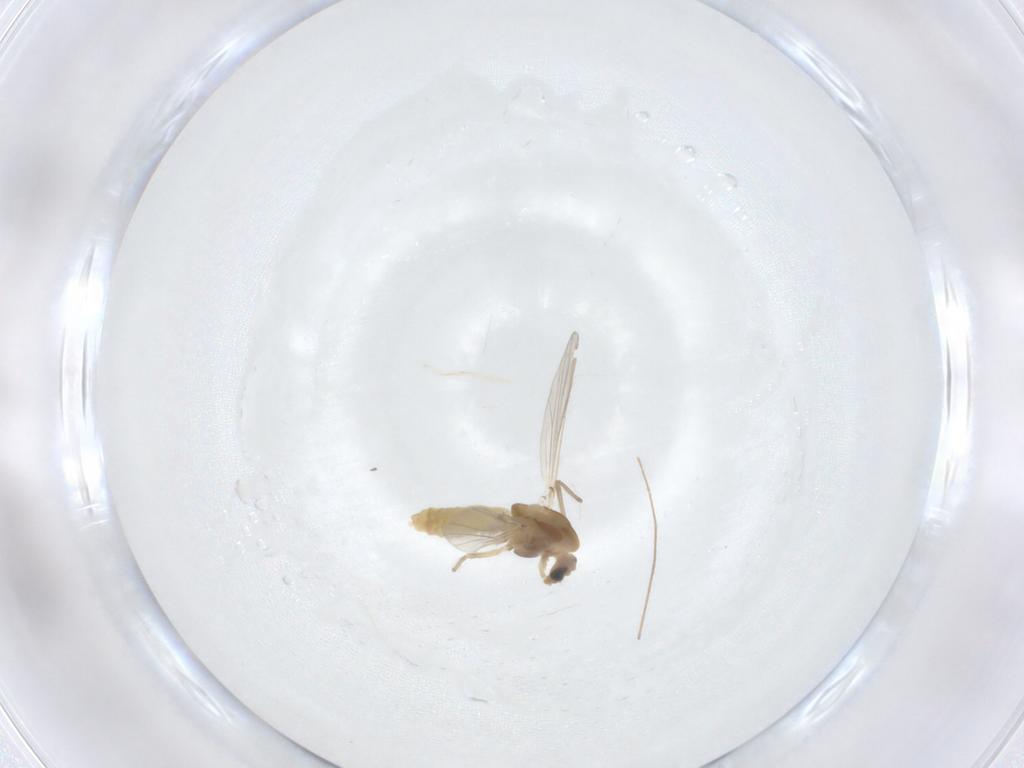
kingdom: Animalia
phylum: Arthropoda
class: Insecta
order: Diptera
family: Chironomidae
